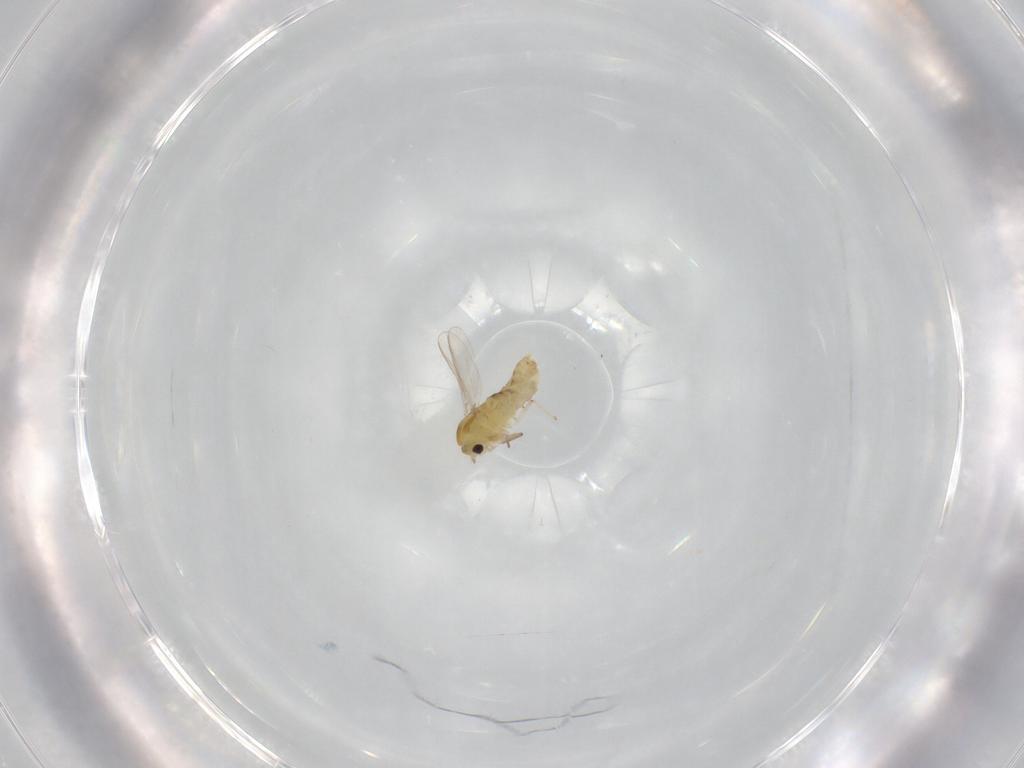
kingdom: Animalia
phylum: Arthropoda
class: Insecta
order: Diptera
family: Chironomidae
